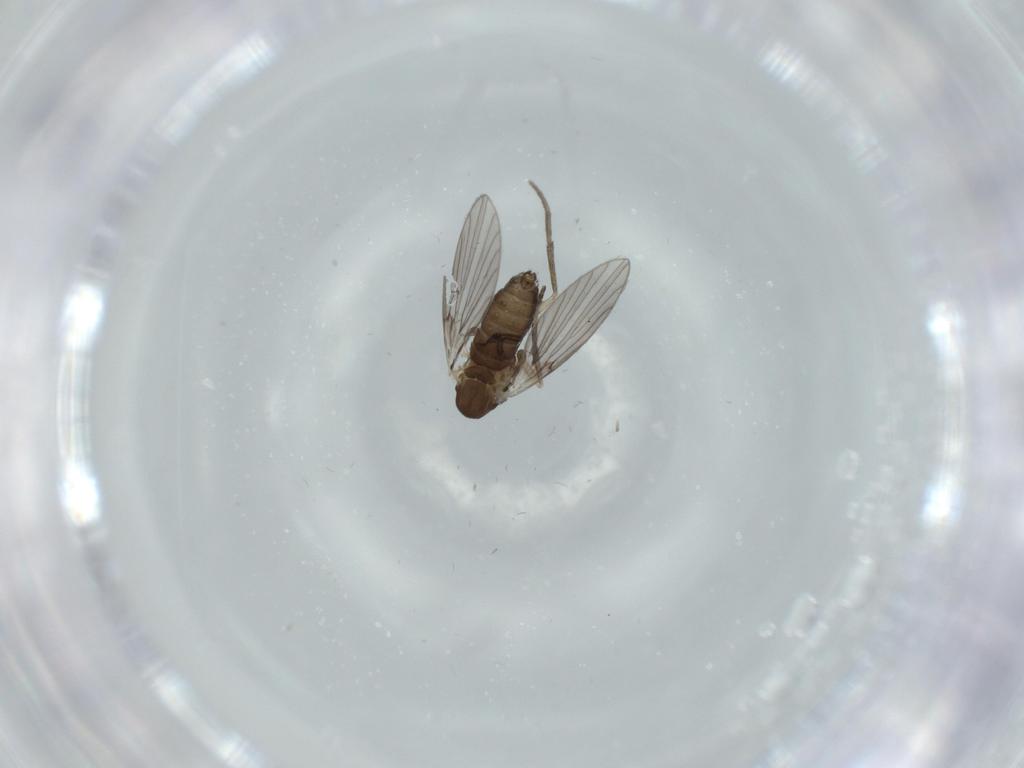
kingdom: Animalia
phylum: Arthropoda
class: Insecta
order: Diptera
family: Psychodidae
